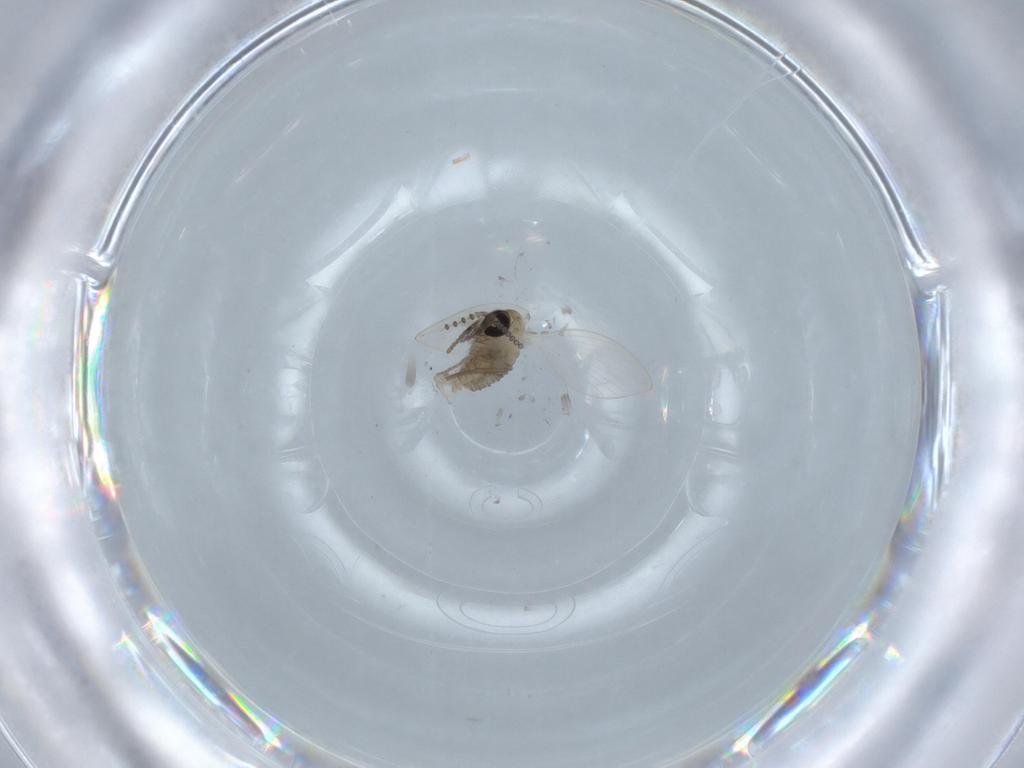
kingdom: Animalia
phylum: Arthropoda
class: Insecta
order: Diptera
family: Psychodidae
